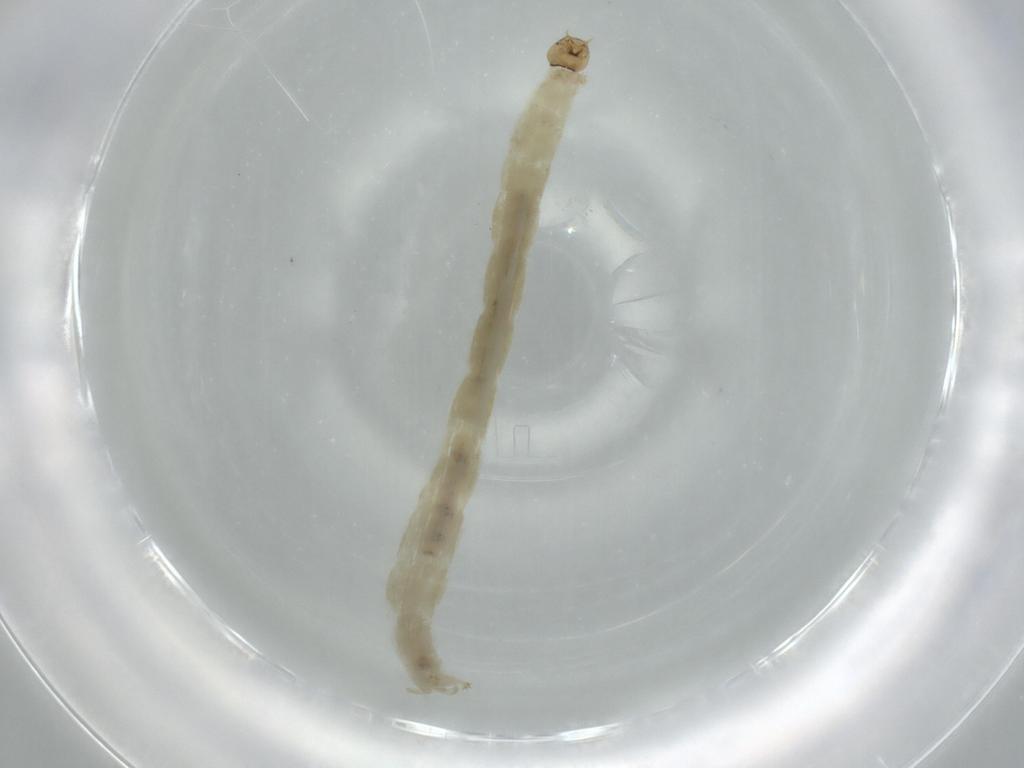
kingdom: Animalia
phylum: Arthropoda
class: Insecta
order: Diptera
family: Chironomidae
